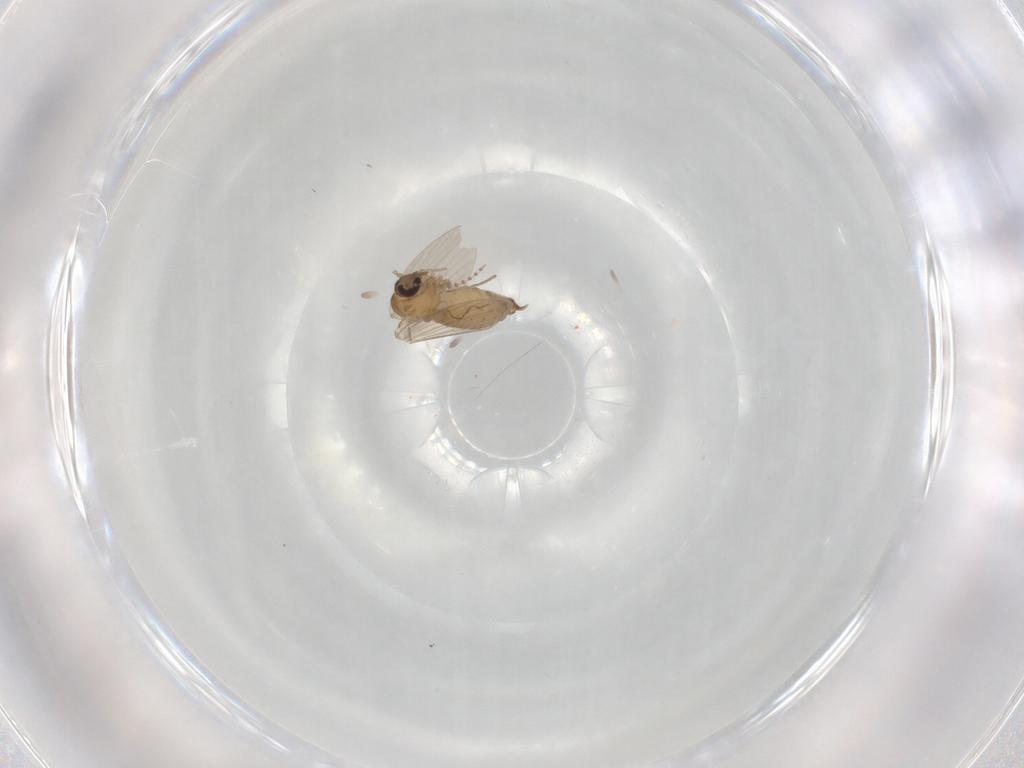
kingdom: Animalia
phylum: Arthropoda
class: Insecta
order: Diptera
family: Psychodidae
